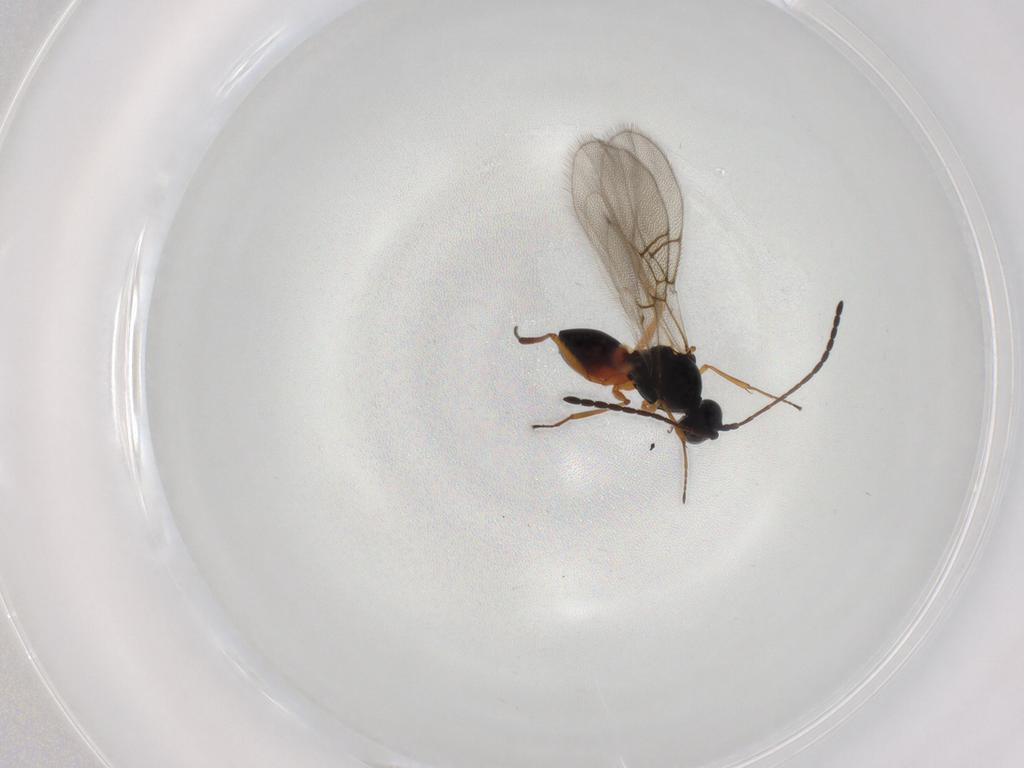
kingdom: Animalia
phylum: Arthropoda
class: Insecta
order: Hymenoptera
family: Figitidae
